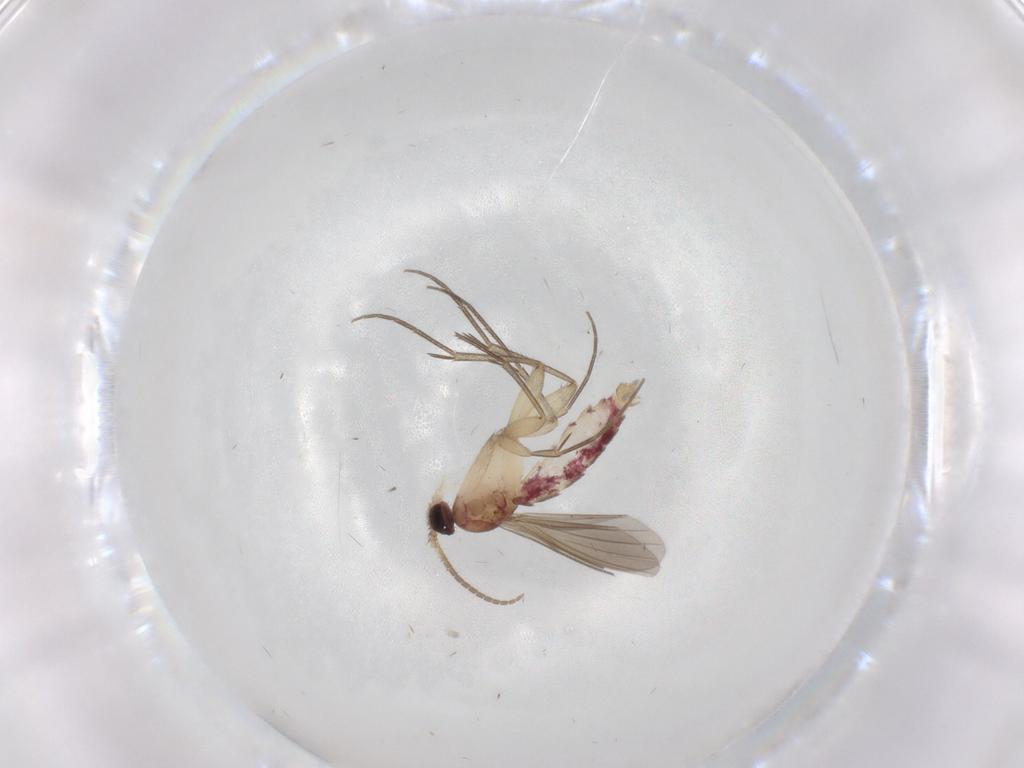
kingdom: Animalia
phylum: Arthropoda
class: Insecta
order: Diptera
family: Mycetophilidae
